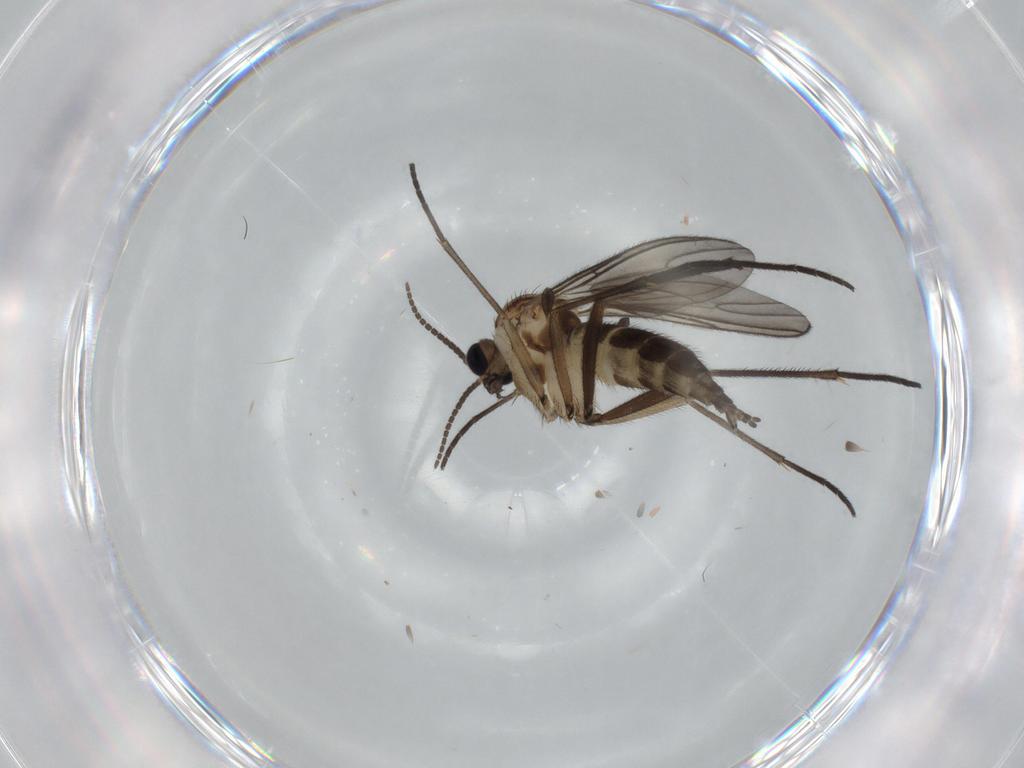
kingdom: Animalia
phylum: Arthropoda
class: Insecta
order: Diptera
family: Sciaridae
